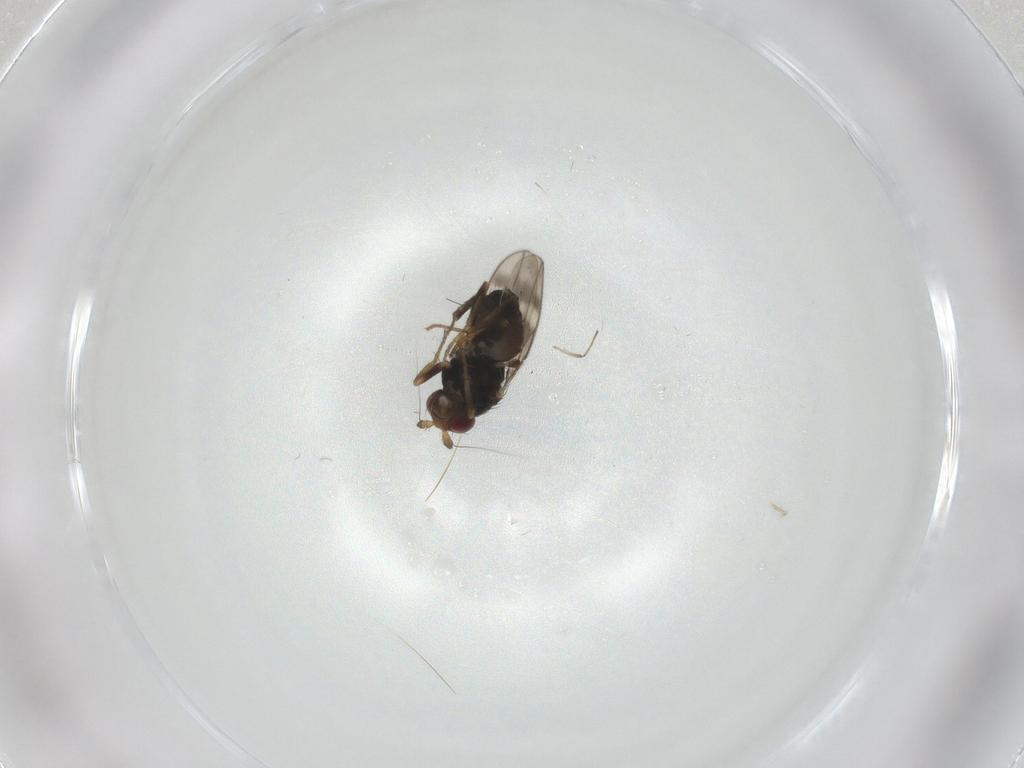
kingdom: Animalia
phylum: Arthropoda
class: Insecta
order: Diptera
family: Sphaeroceridae
